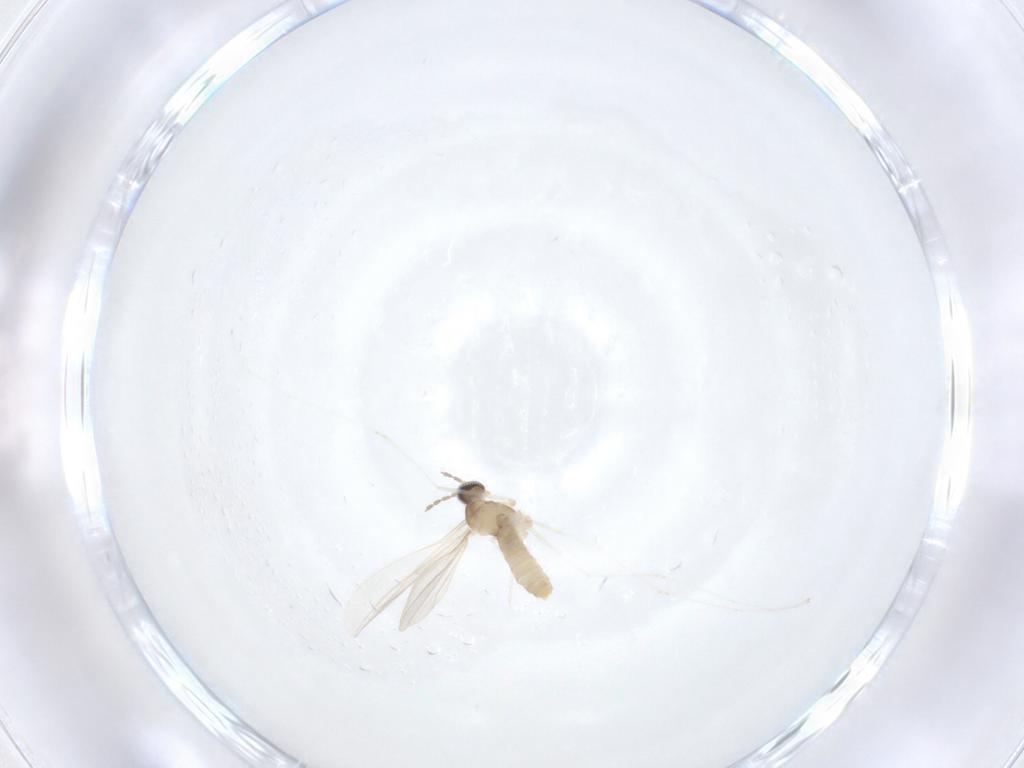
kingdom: Animalia
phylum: Arthropoda
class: Insecta
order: Diptera
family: Cecidomyiidae
